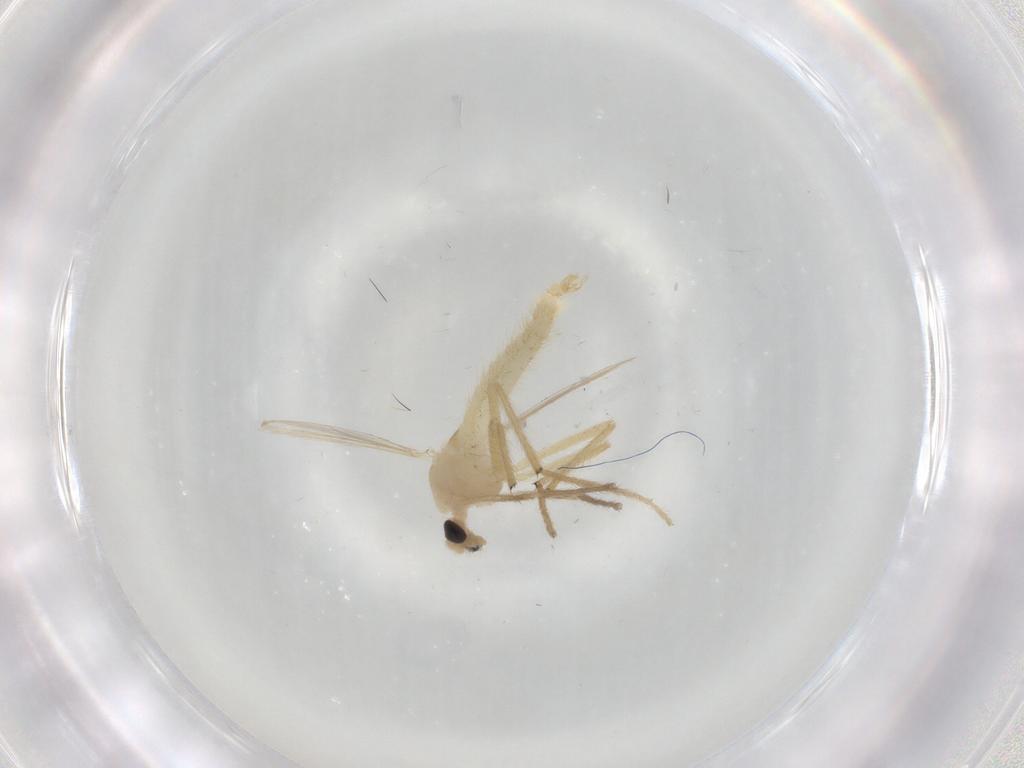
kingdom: Animalia
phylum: Arthropoda
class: Insecta
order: Diptera
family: Chironomidae
